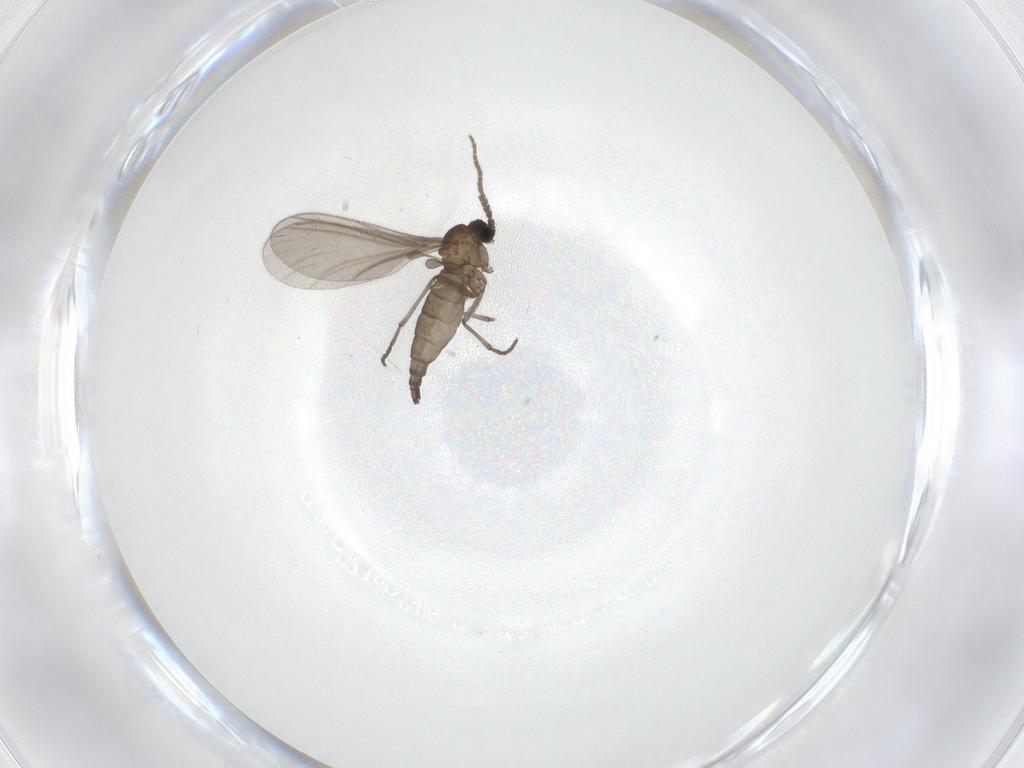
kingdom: Animalia
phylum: Arthropoda
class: Insecta
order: Diptera
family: Sciaridae
